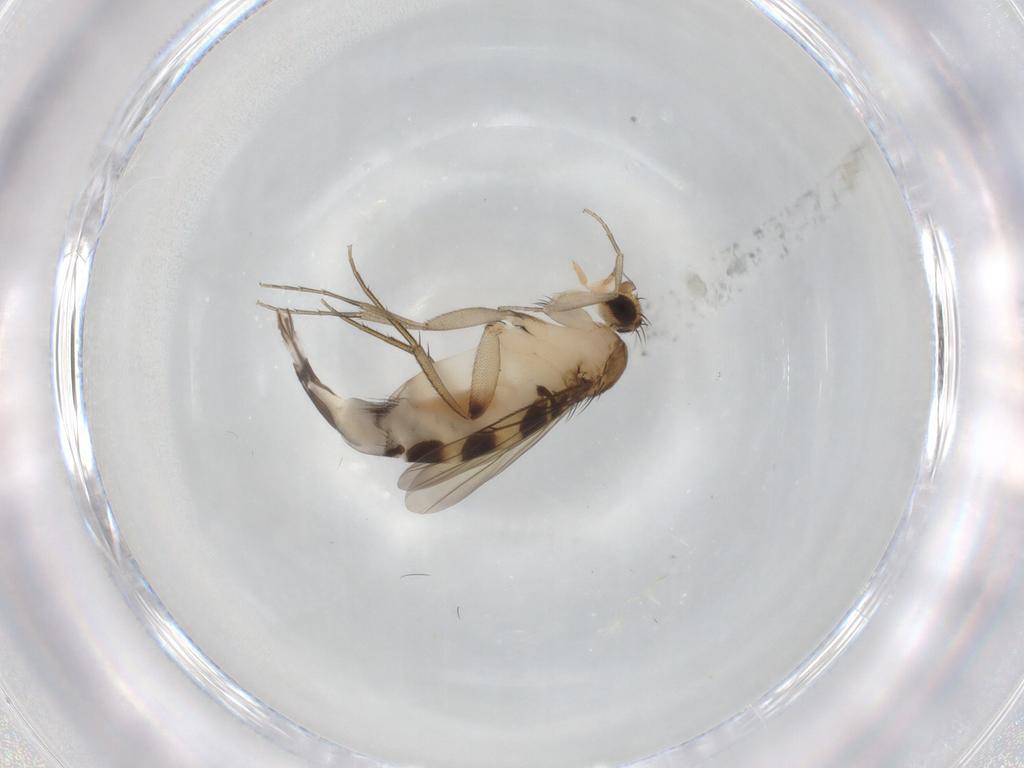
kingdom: Animalia
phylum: Arthropoda
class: Insecta
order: Diptera
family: Phoridae
